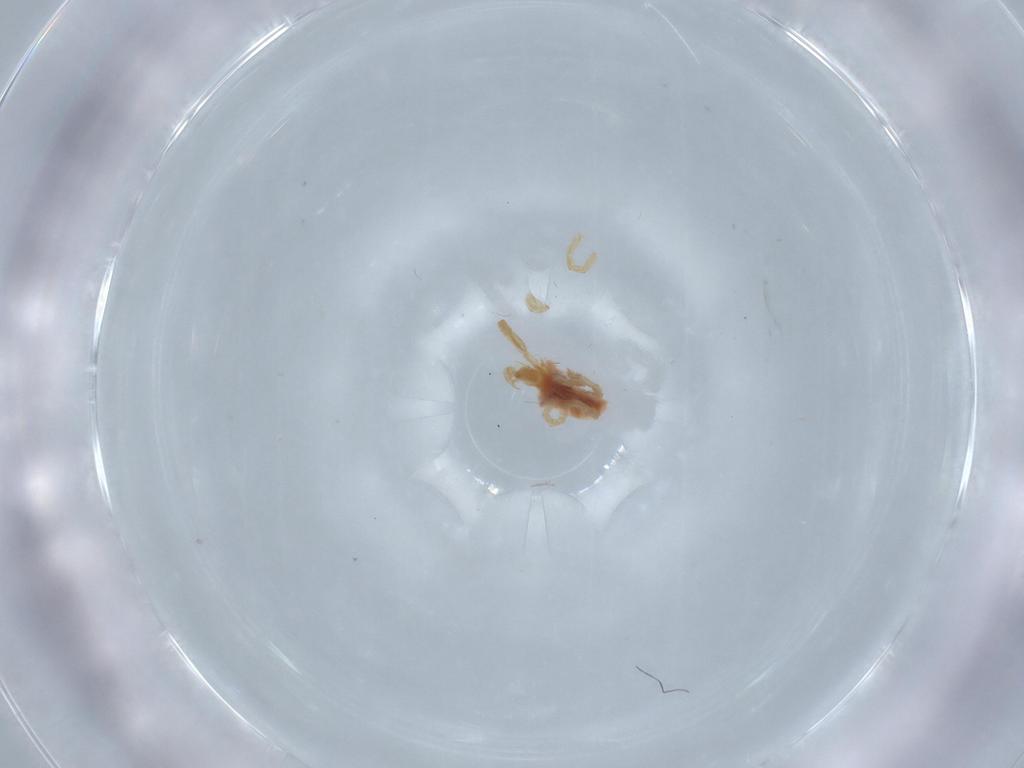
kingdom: Animalia
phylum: Arthropoda
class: Arachnida
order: Trombidiformes
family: Trombidiidae
